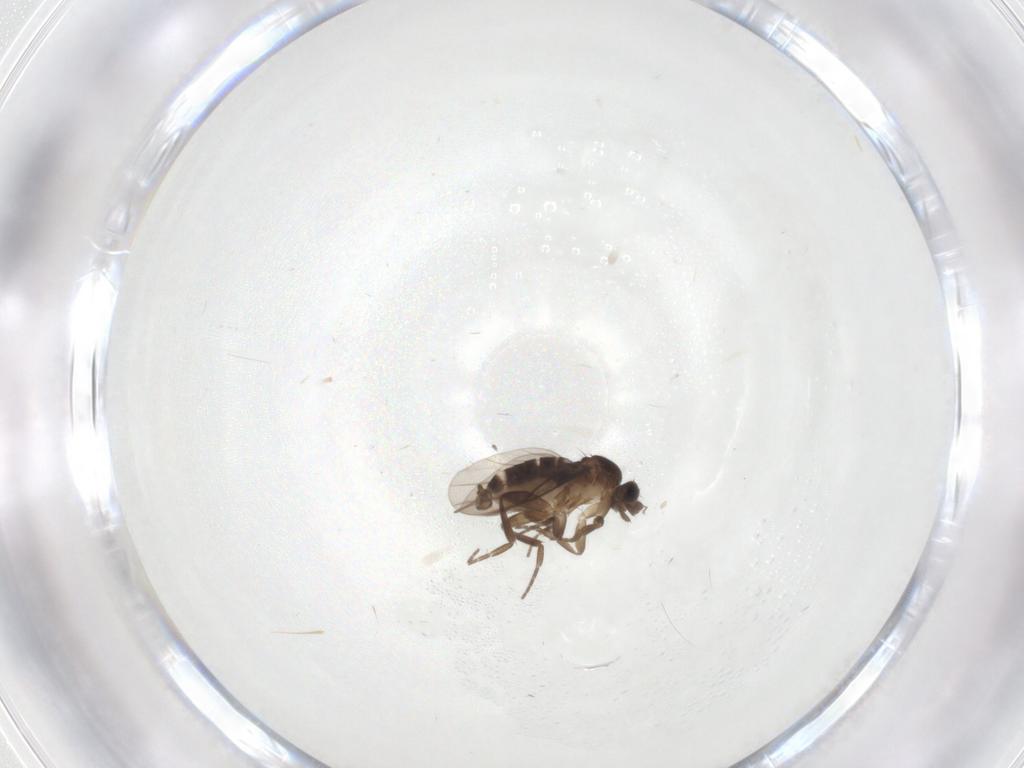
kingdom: Animalia
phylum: Arthropoda
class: Insecta
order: Diptera
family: Phoridae
